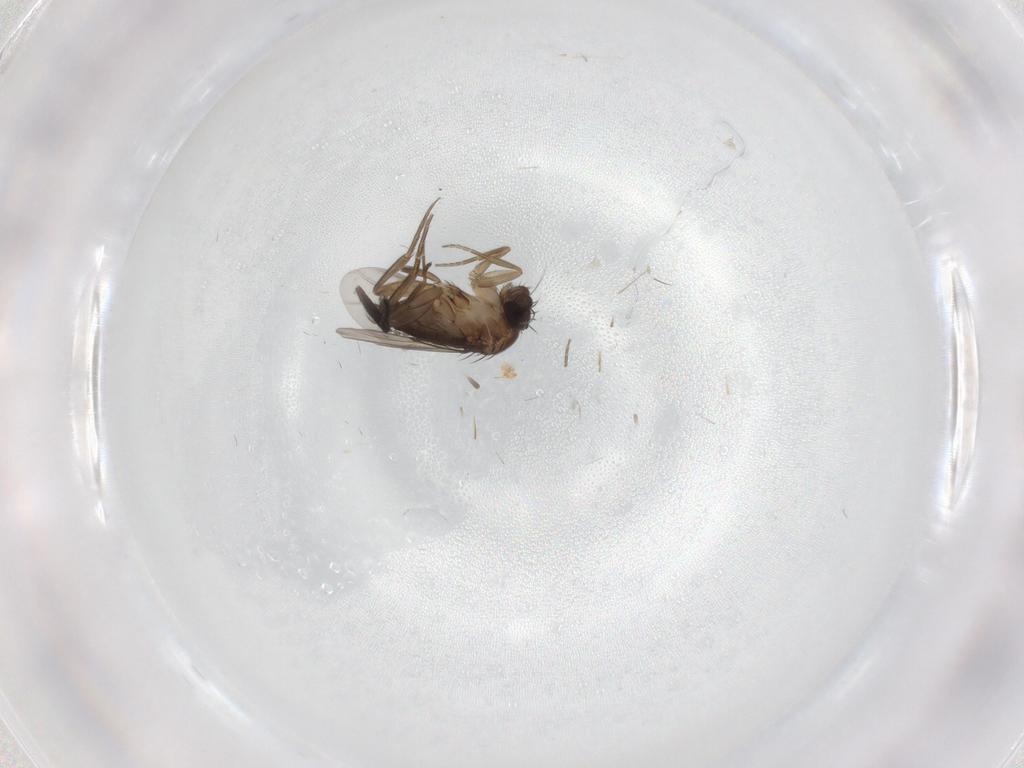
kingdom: Animalia
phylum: Arthropoda
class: Insecta
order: Diptera
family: Phoridae
